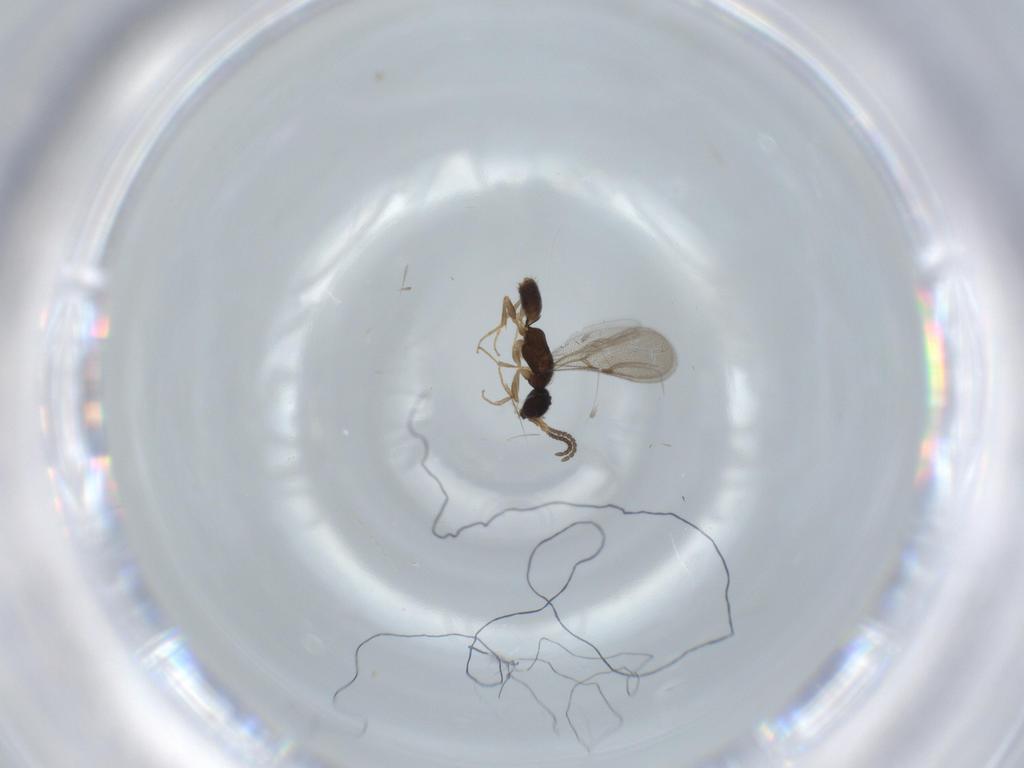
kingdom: Animalia
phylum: Arthropoda
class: Insecta
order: Hymenoptera
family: Bethylidae
